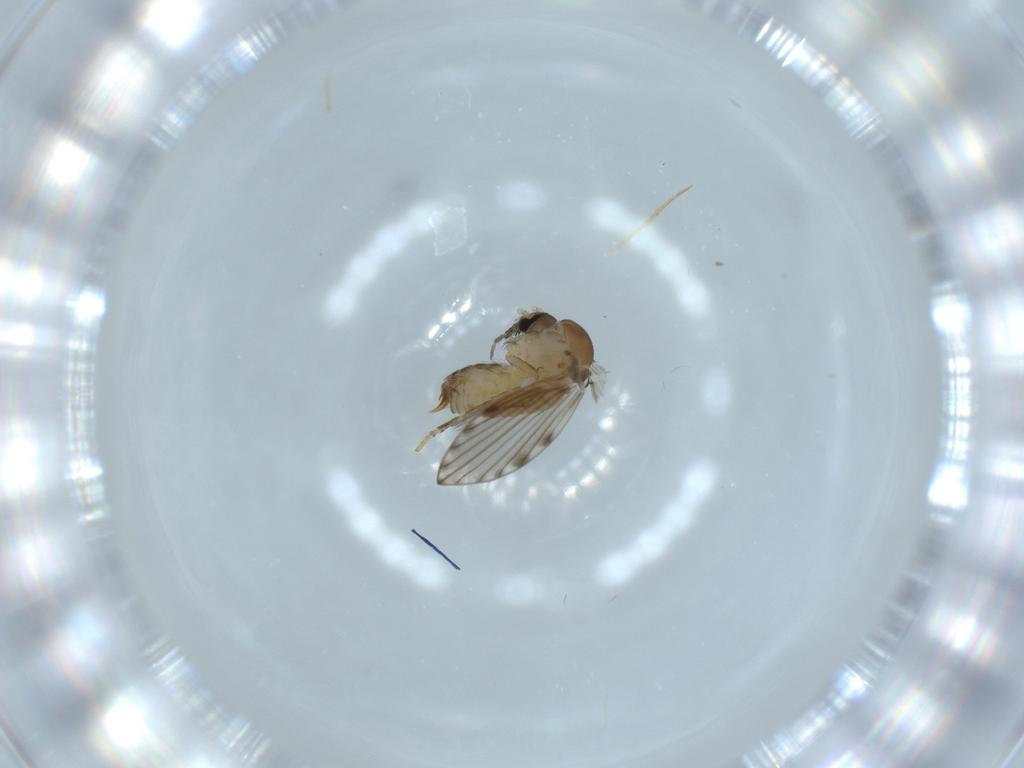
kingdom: Animalia
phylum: Arthropoda
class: Insecta
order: Diptera
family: Psychodidae
